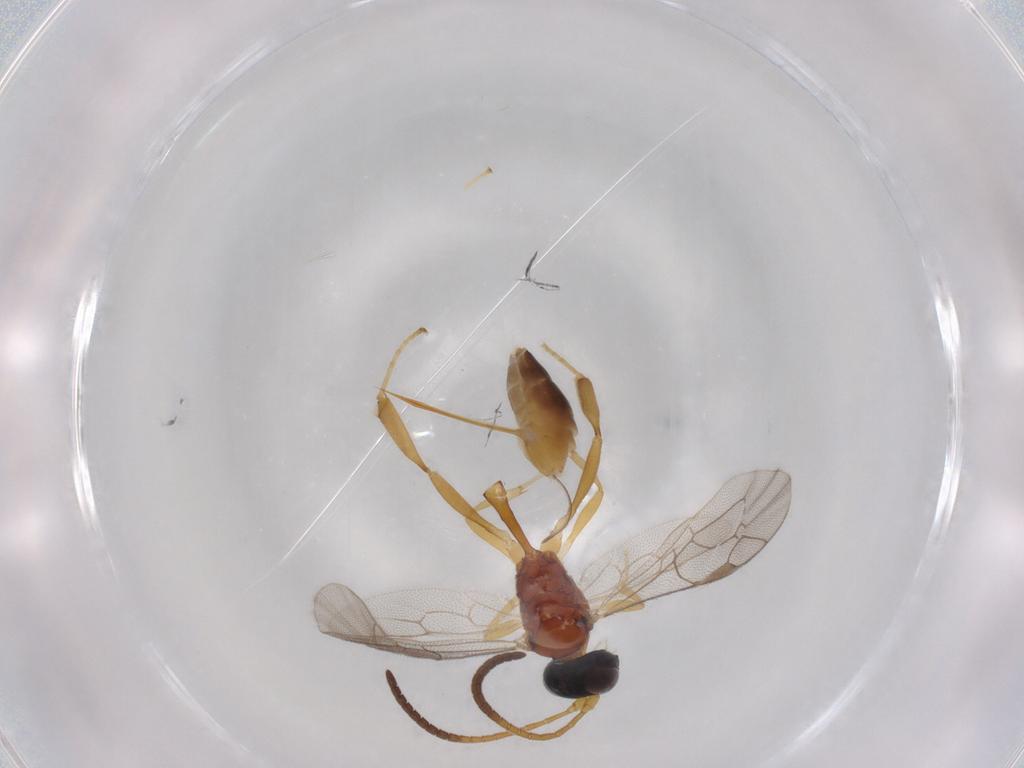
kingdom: Animalia
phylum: Arthropoda
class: Insecta
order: Hymenoptera
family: Ichneumonidae
